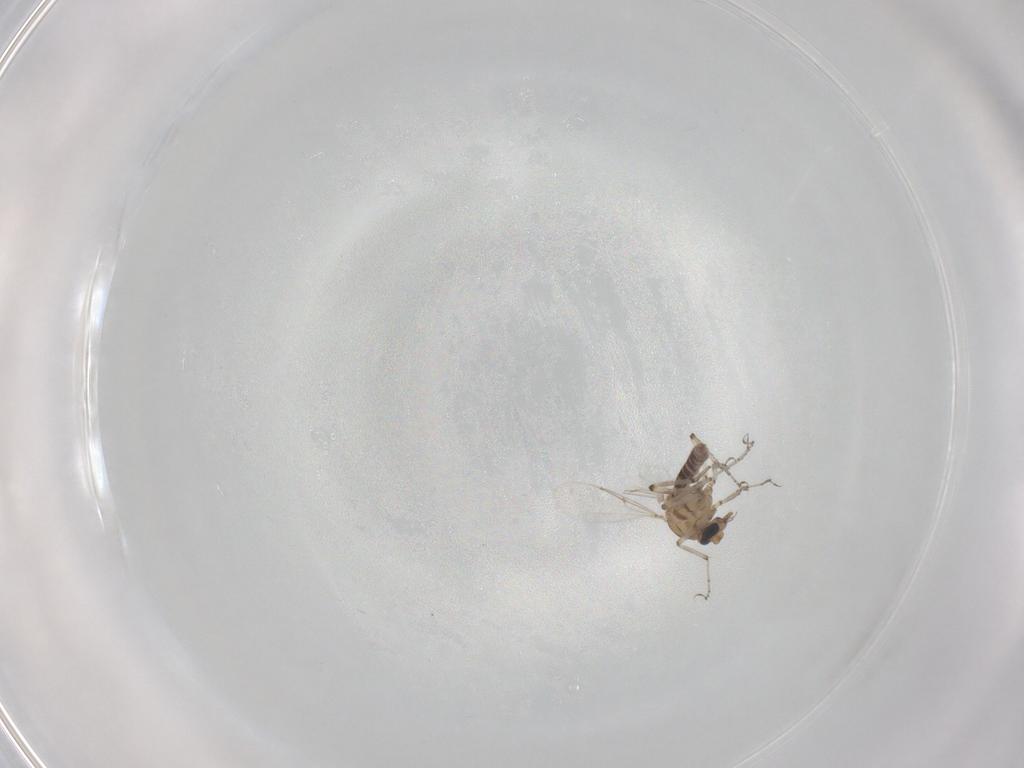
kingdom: Animalia
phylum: Arthropoda
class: Insecta
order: Diptera
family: Ceratopogonidae
